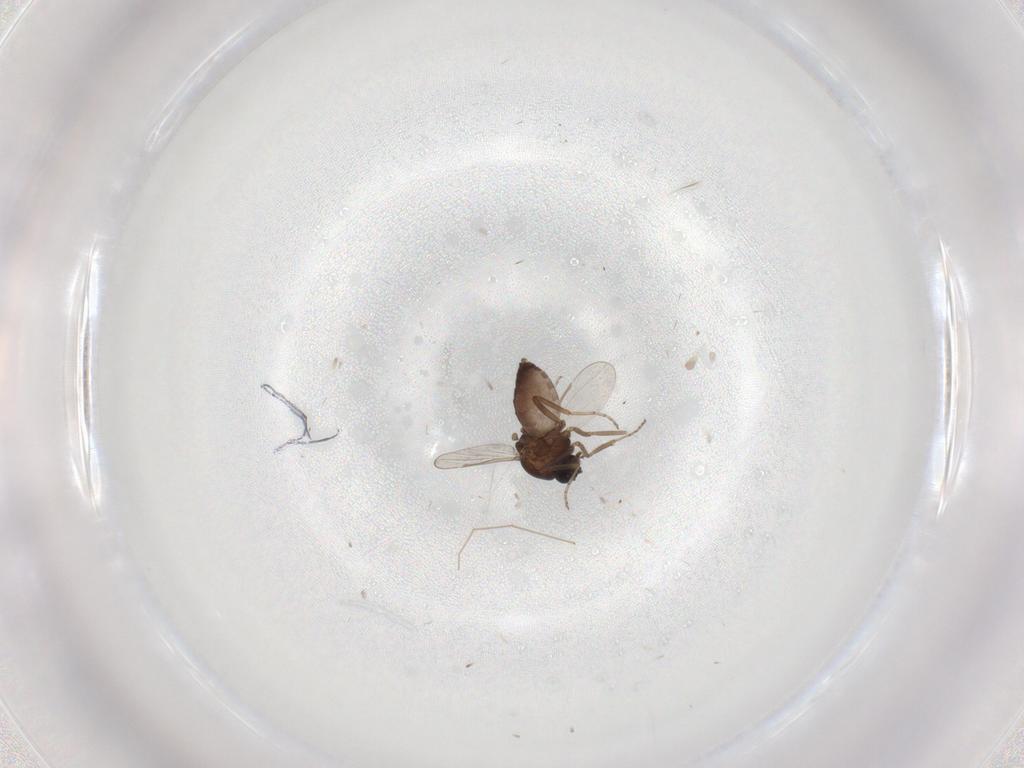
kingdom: Animalia
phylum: Arthropoda
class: Insecta
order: Diptera
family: Ceratopogonidae
